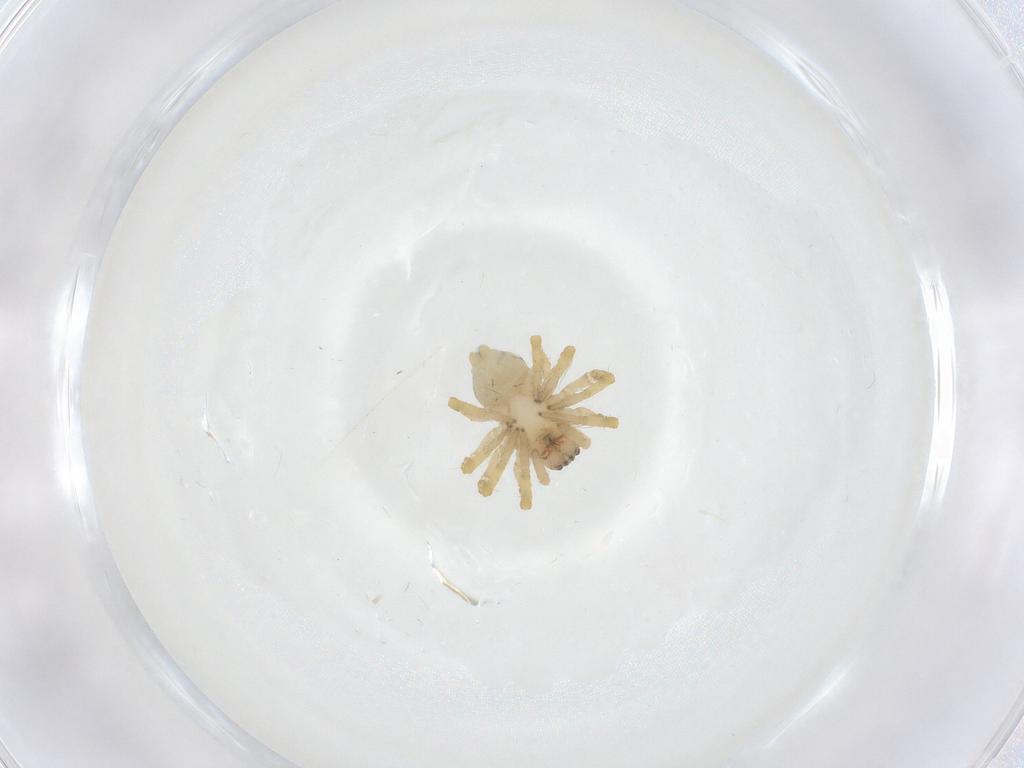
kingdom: Animalia
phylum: Arthropoda
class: Arachnida
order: Araneae
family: Desidae
